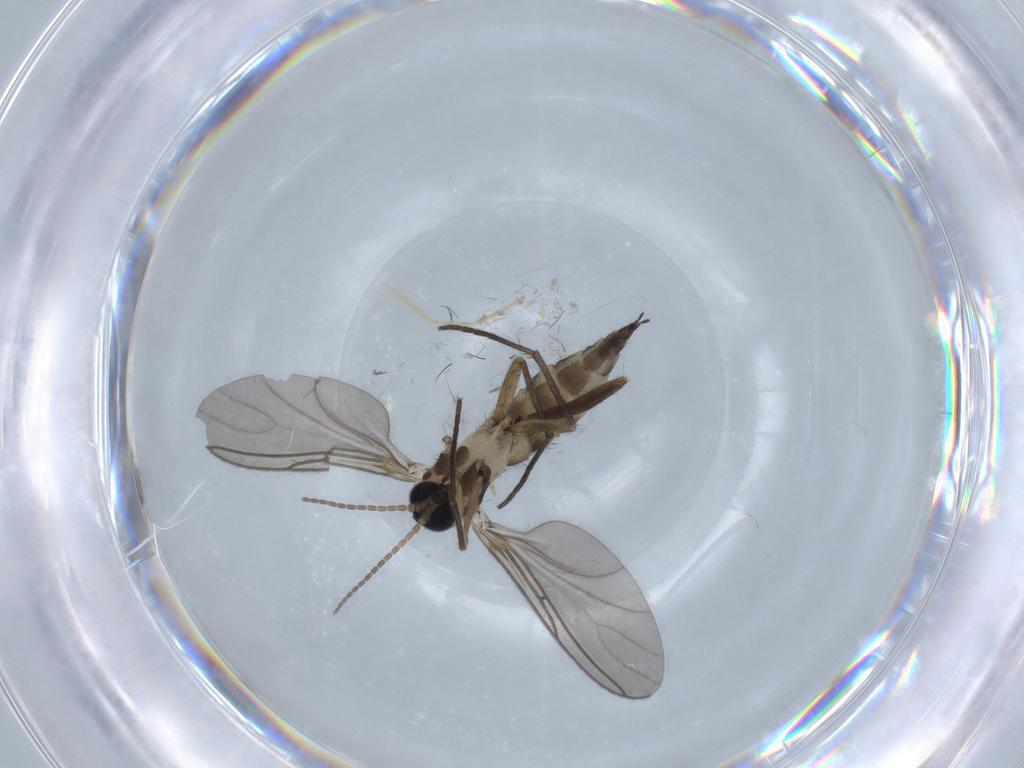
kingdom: Animalia
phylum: Arthropoda
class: Insecta
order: Diptera
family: Sciaridae
